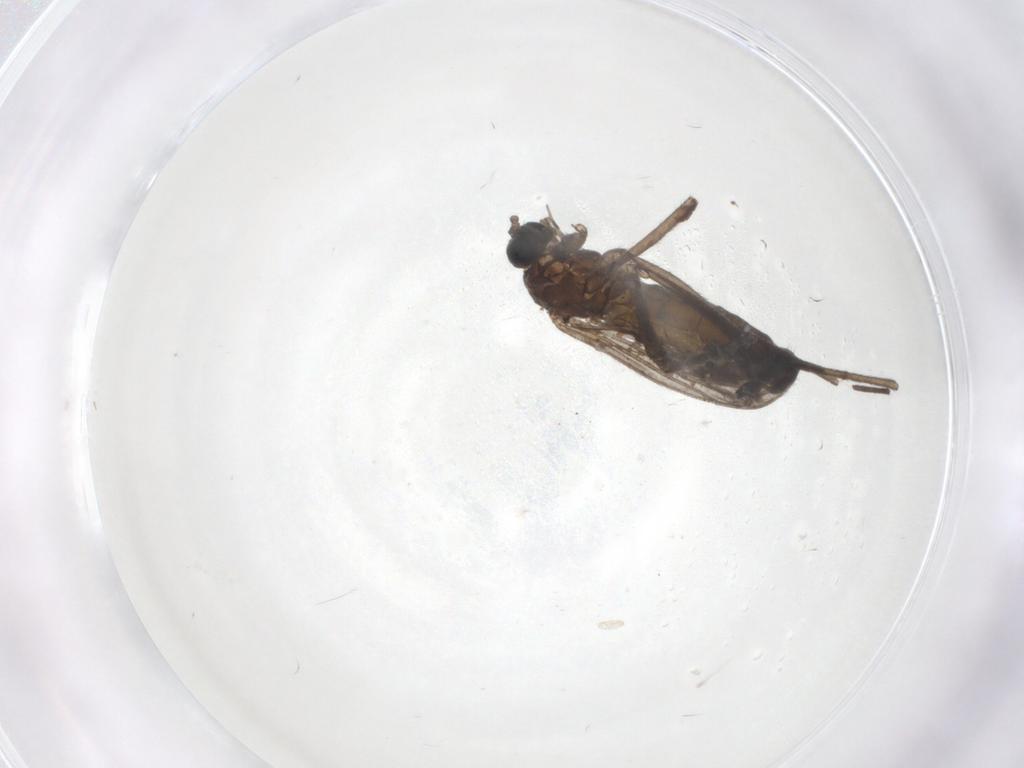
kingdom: Animalia
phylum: Arthropoda
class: Insecta
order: Diptera
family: Sciaridae
